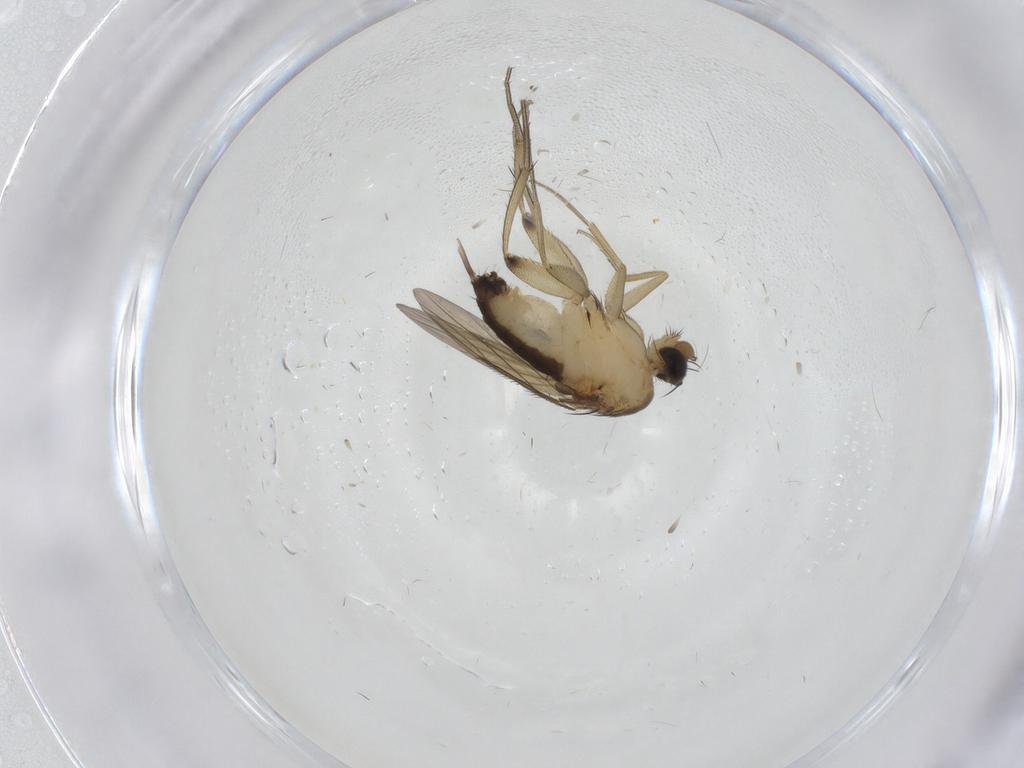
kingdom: Animalia
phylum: Arthropoda
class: Insecta
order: Diptera
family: Phoridae
